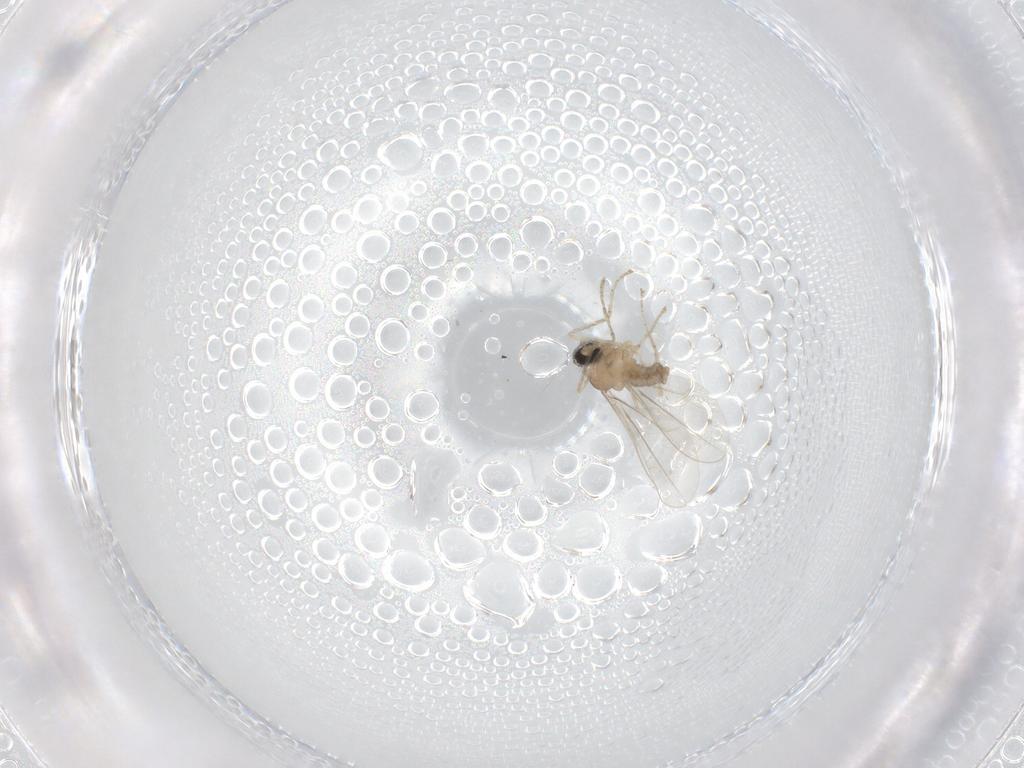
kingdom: Animalia
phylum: Arthropoda
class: Insecta
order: Diptera
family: Cecidomyiidae
